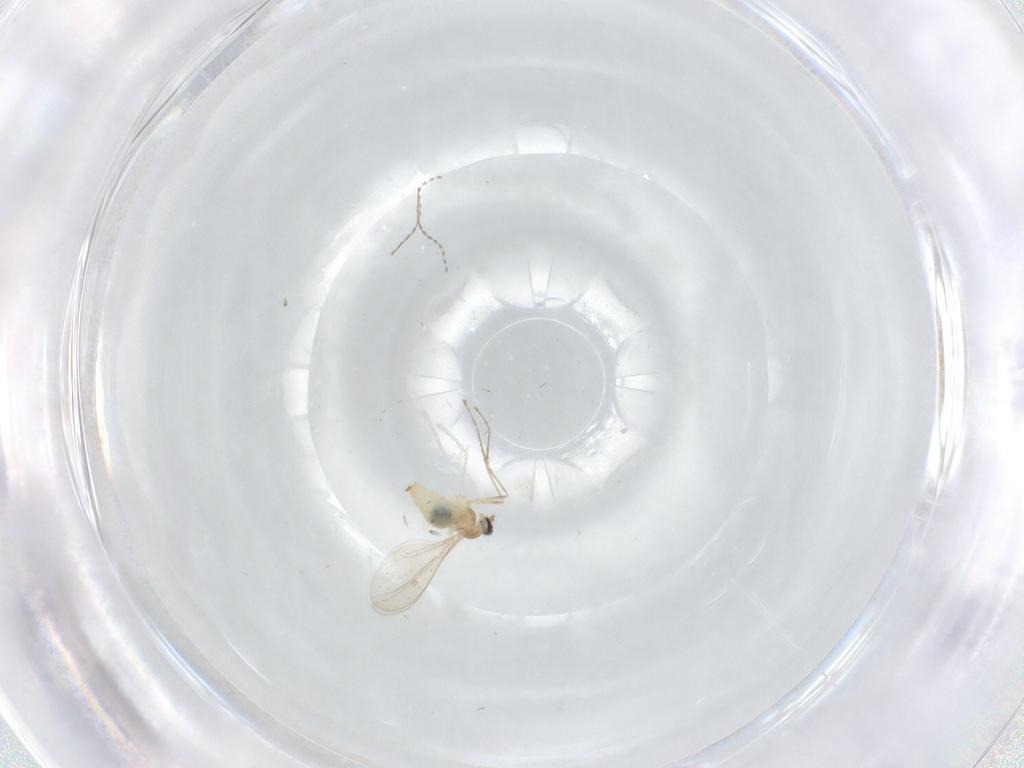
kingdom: Animalia
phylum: Arthropoda
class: Insecta
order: Diptera
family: Cecidomyiidae
